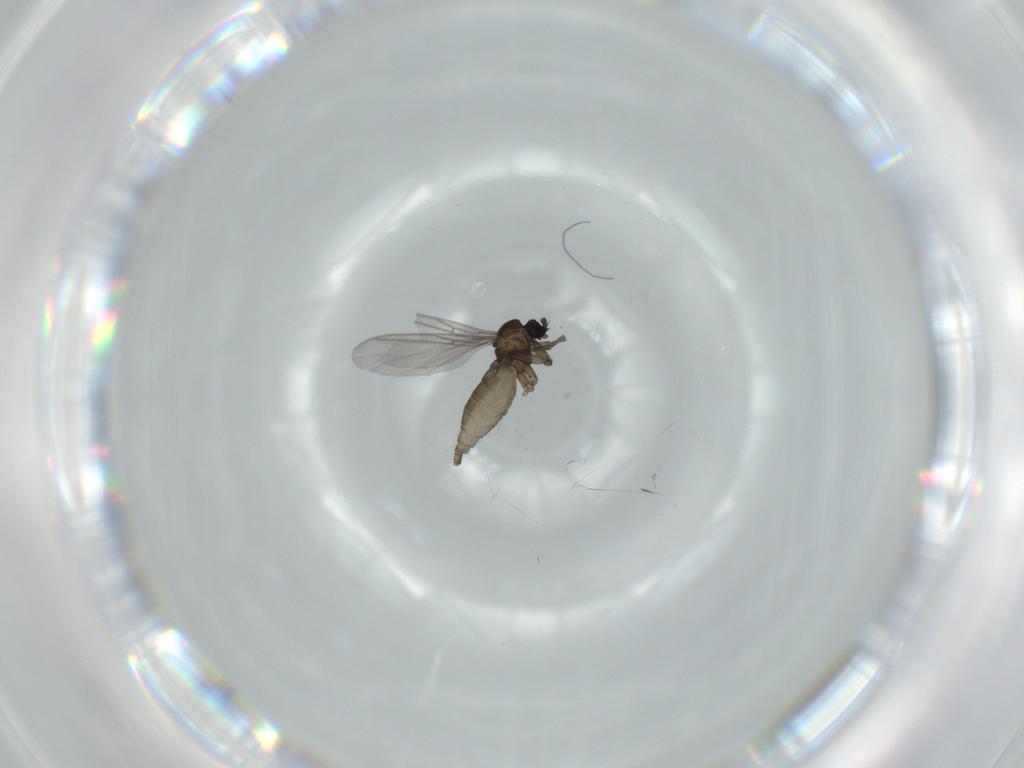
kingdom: Animalia
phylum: Arthropoda
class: Insecta
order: Diptera
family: Sciaridae
